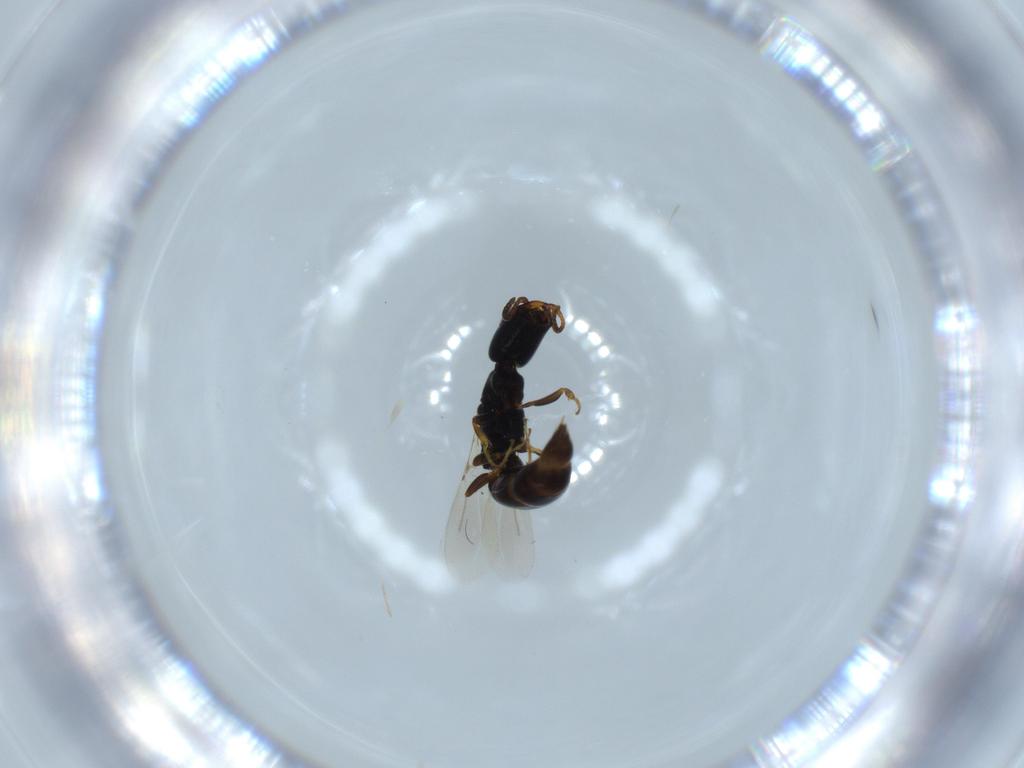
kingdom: Animalia
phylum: Arthropoda
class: Insecta
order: Hymenoptera
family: Bethylidae
